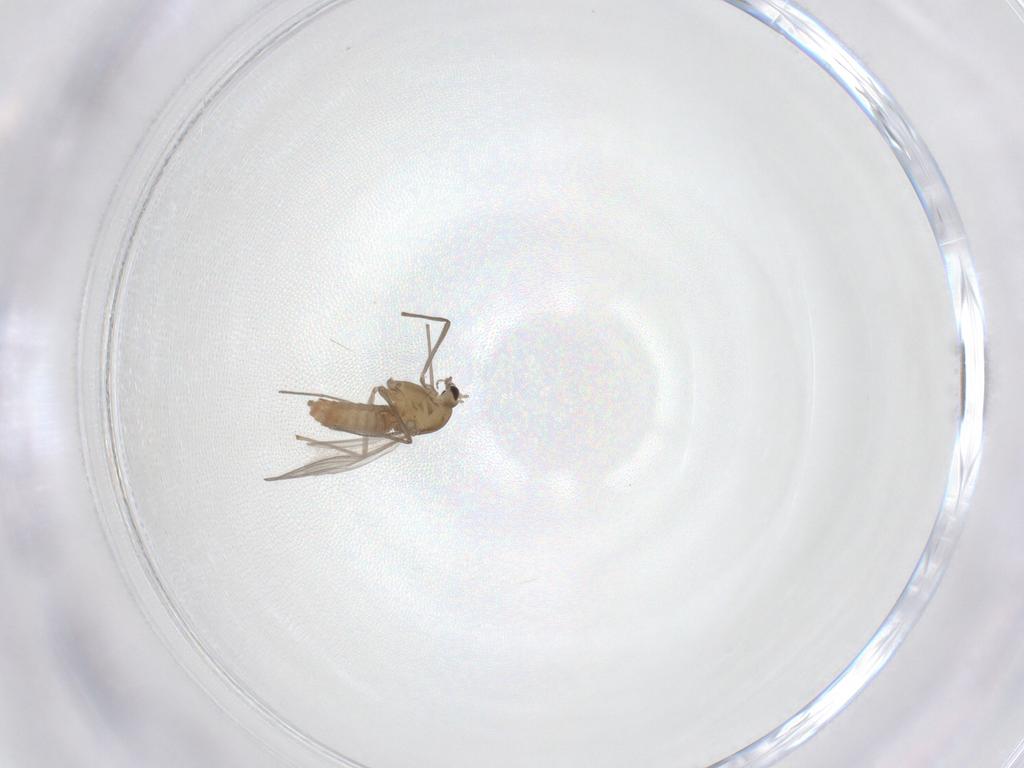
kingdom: Animalia
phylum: Arthropoda
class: Insecta
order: Diptera
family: Chironomidae
